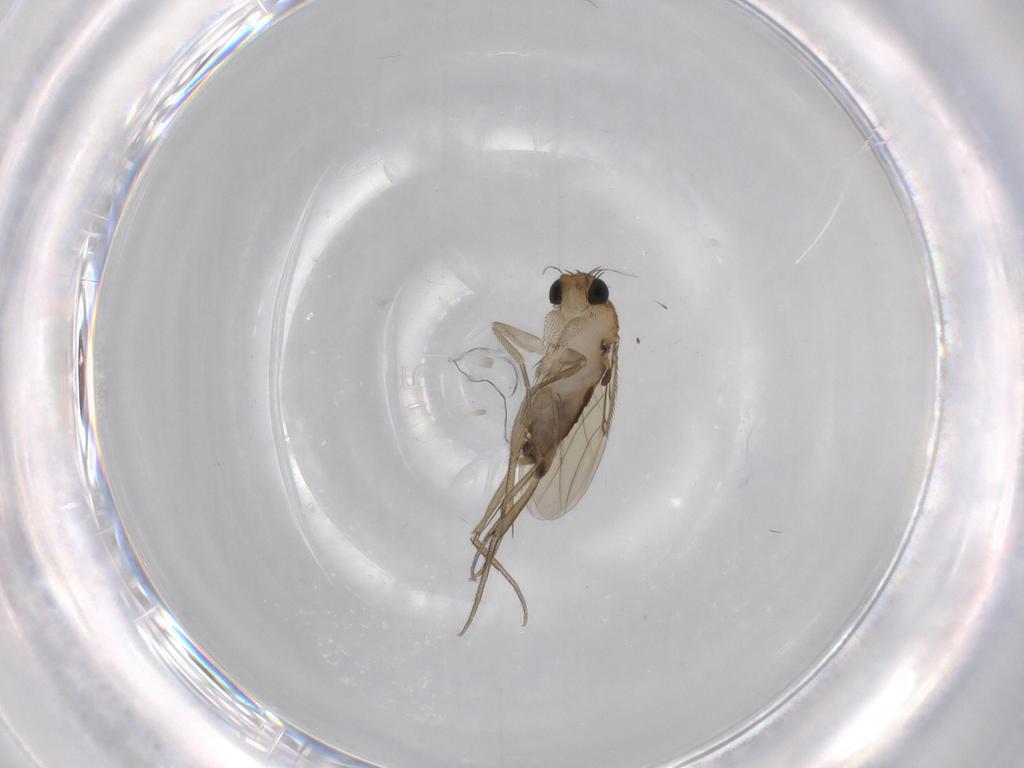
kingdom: Animalia
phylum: Arthropoda
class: Insecta
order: Diptera
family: Phoridae
